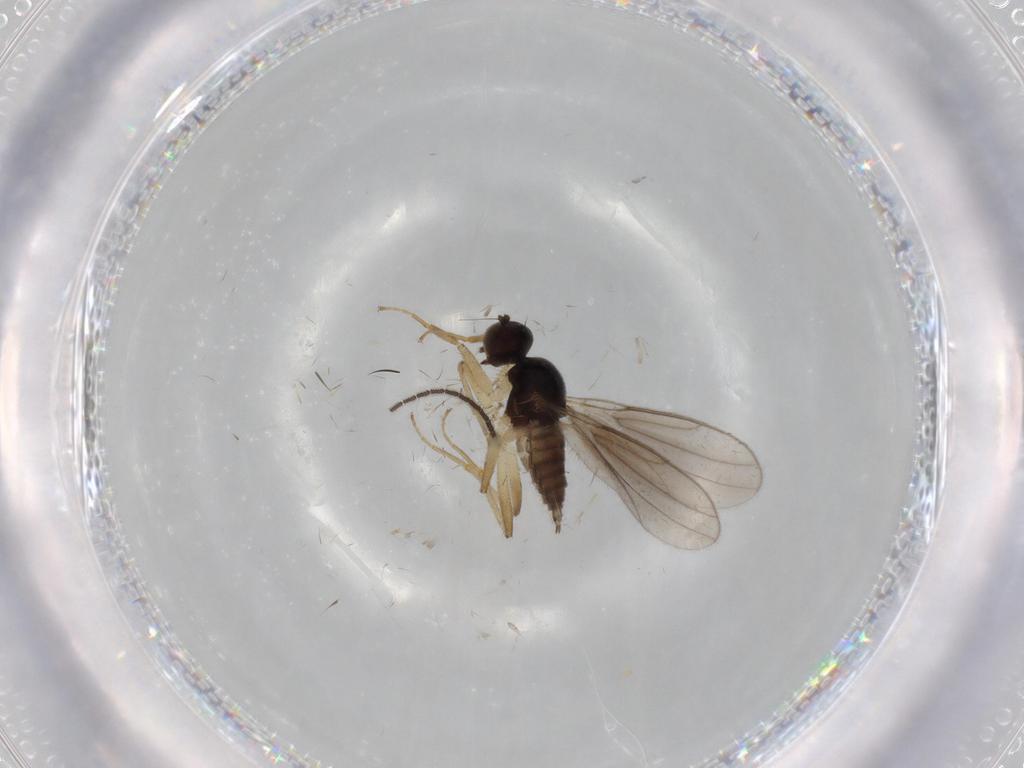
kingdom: Animalia
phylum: Arthropoda
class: Insecta
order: Diptera
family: Hybotidae
